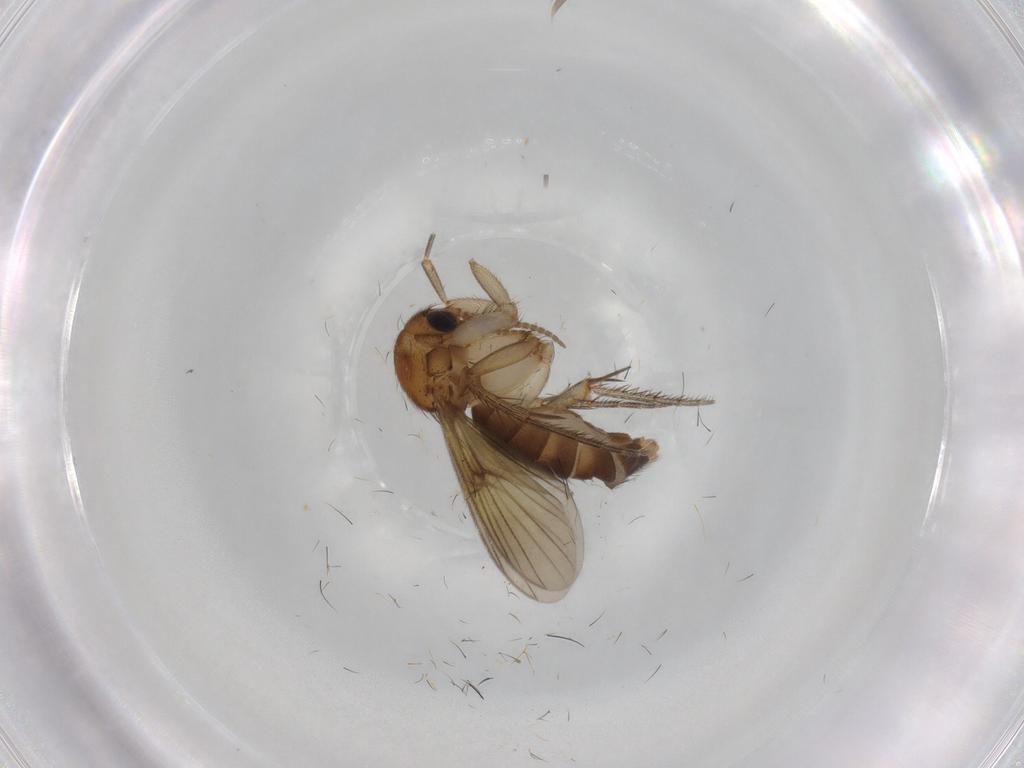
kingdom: Animalia
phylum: Arthropoda
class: Insecta
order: Diptera
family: Mycetophilidae
